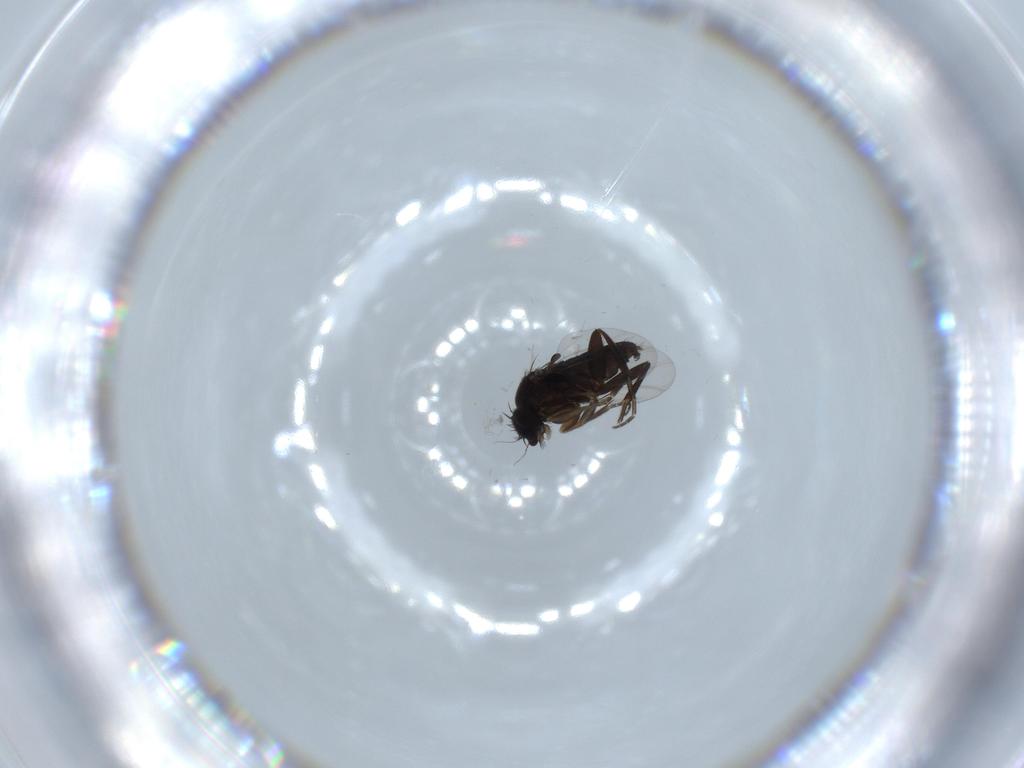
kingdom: Animalia
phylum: Arthropoda
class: Insecta
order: Diptera
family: Phoridae
